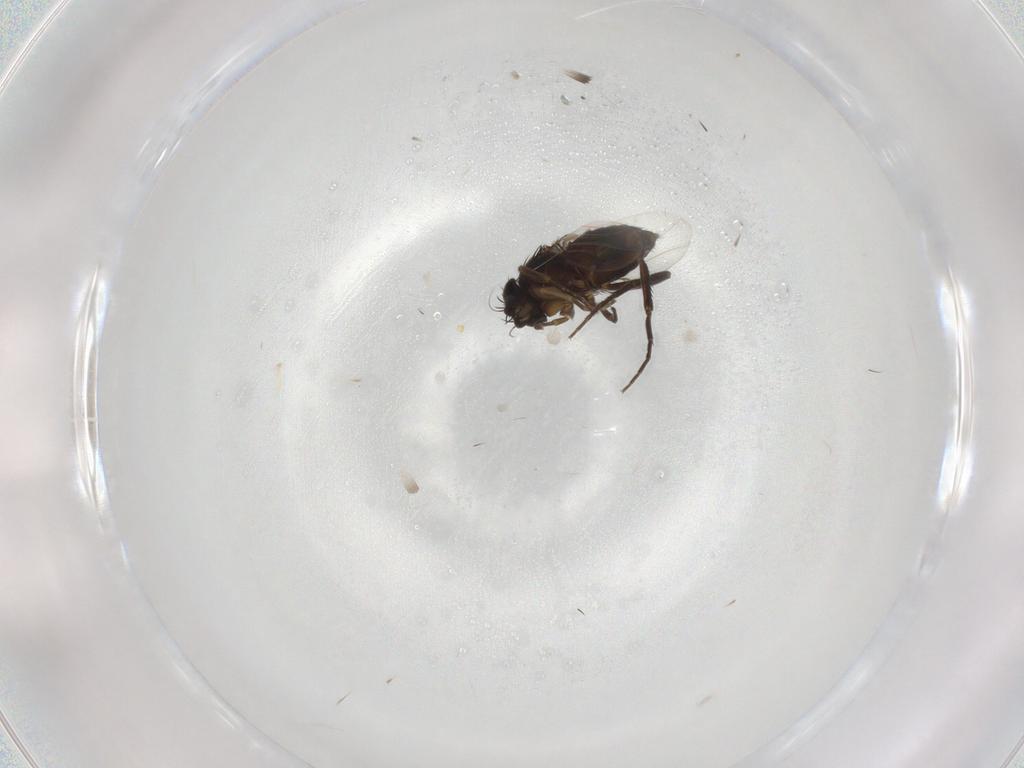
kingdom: Animalia
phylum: Arthropoda
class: Insecta
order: Diptera
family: Phoridae
